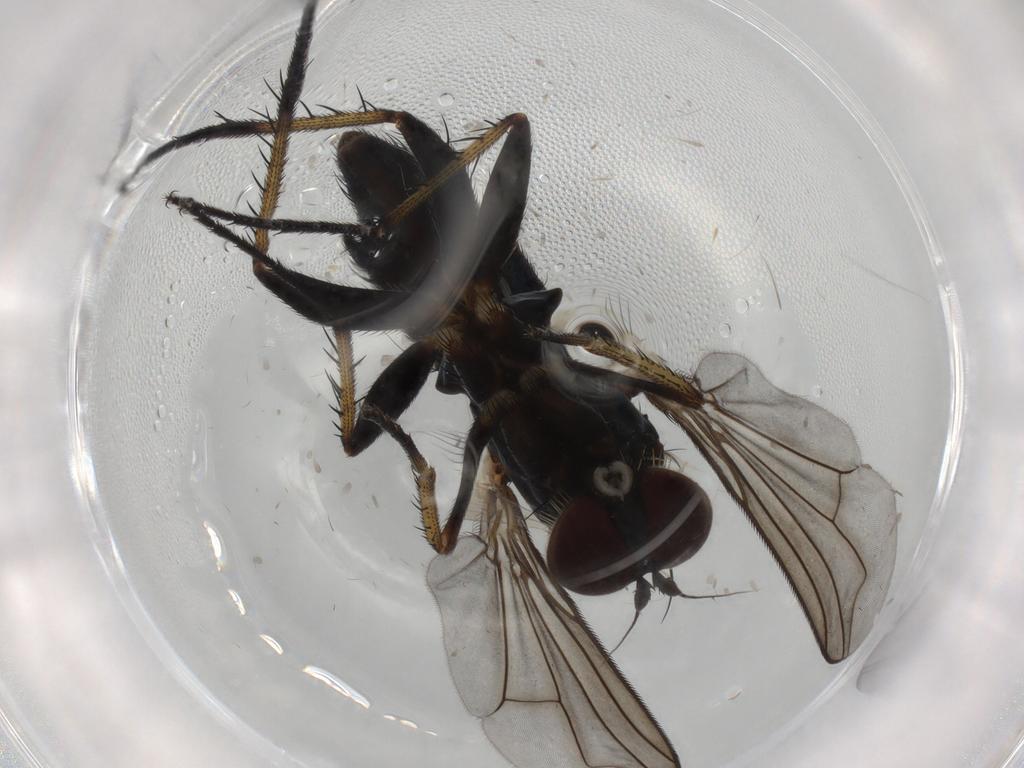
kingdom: Animalia
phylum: Arthropoda
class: Insecta
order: Diptera
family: Dolichopodidae
